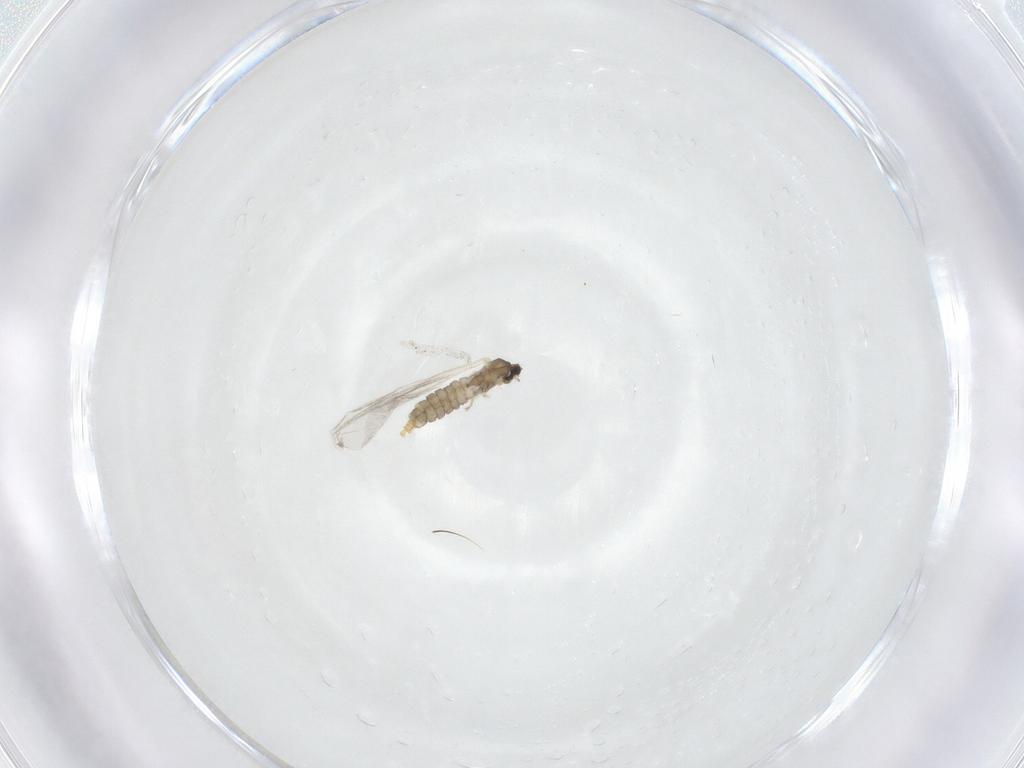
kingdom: Animalia
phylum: Arthropoda
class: Insecta
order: Diptera
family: Cecidomyiidae
